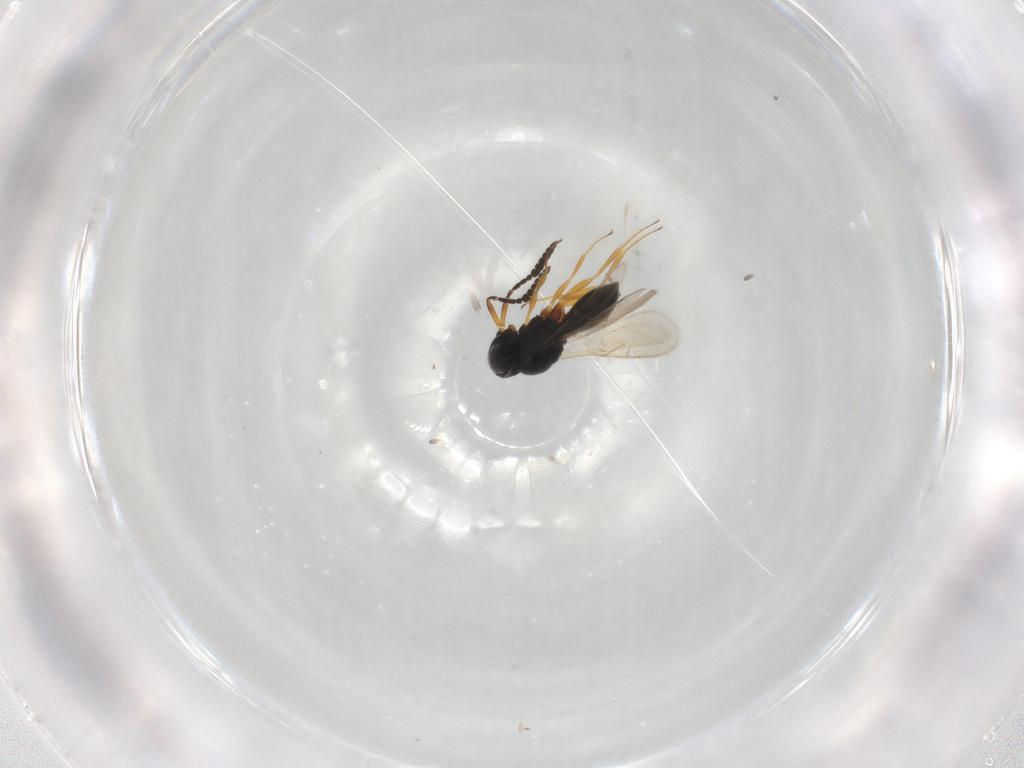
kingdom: Animalia
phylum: Arthropoda
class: Insecta
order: Hymenoptera
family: Scelionidae
